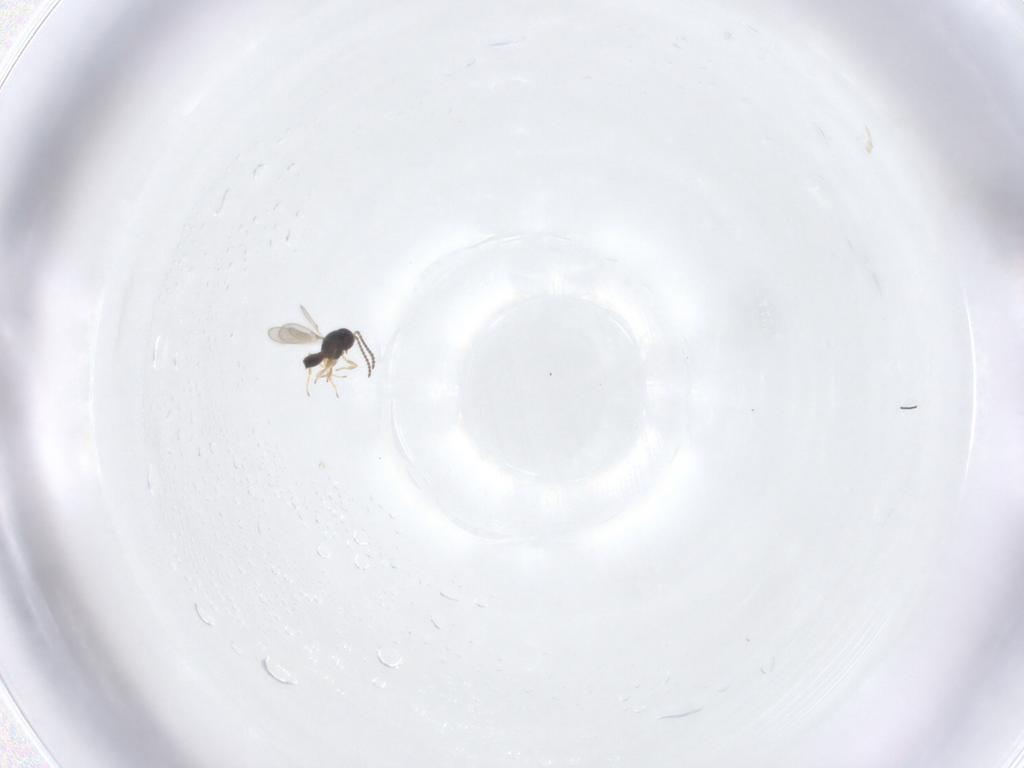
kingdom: Animalia
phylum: Arthropoda
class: Insecta
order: Hymenoptera
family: Scelionidae
